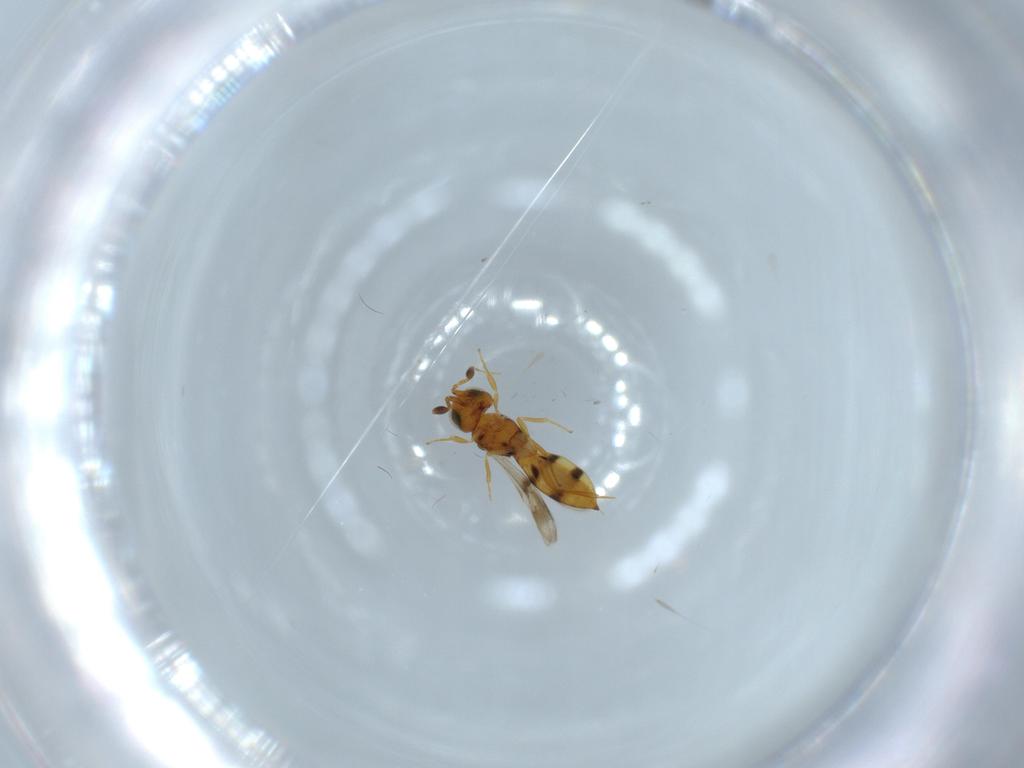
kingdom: Animalia
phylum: Arthropoda
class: Insecta
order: Hymenoptera
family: Scelionidae
